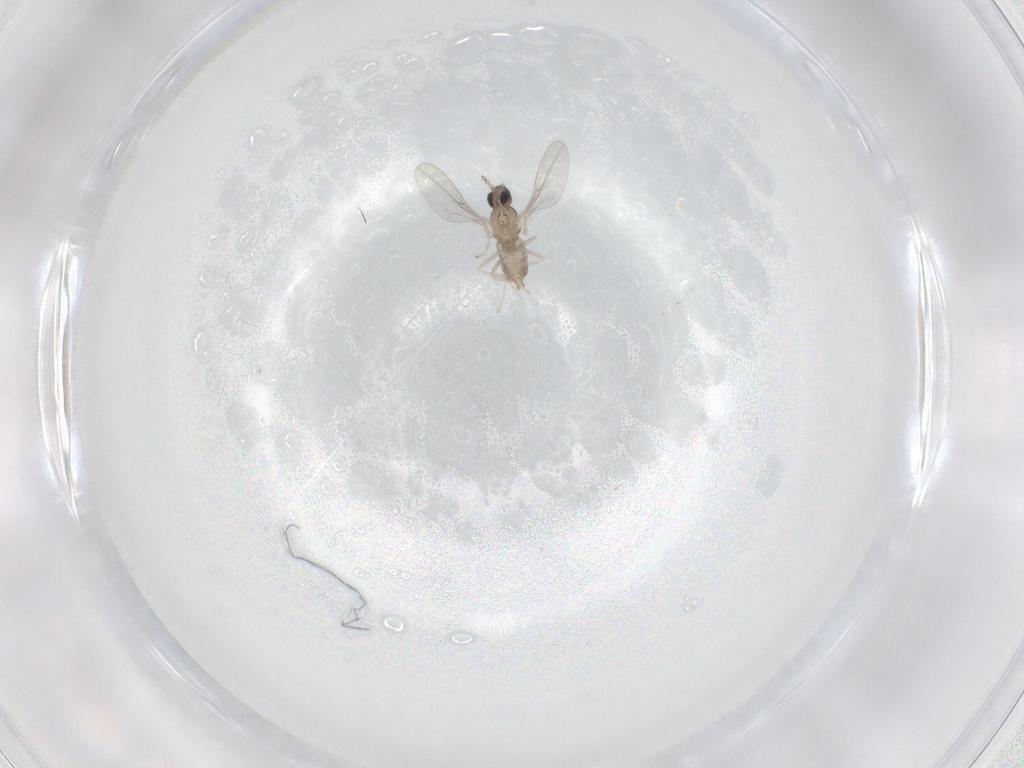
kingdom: Animalia
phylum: Arthropoda
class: Insecta
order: Diptera
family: Cecidomyiidae
